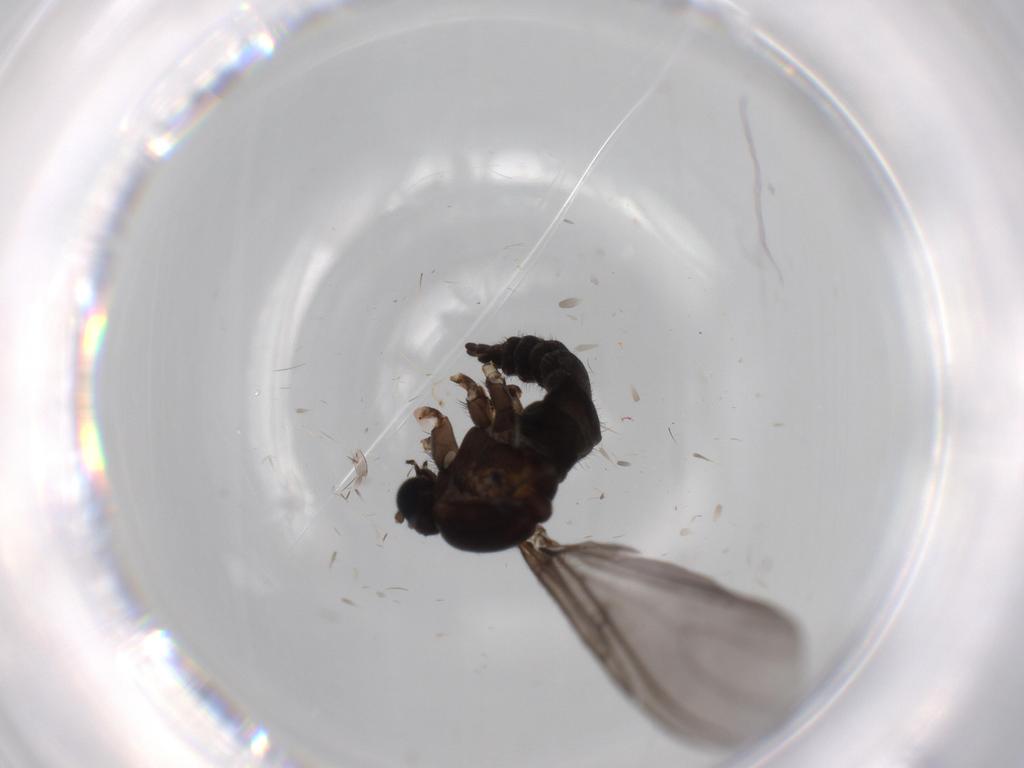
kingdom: Animalia
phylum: Arthropoda
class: Insecta
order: Diptera
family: Sciaridae
